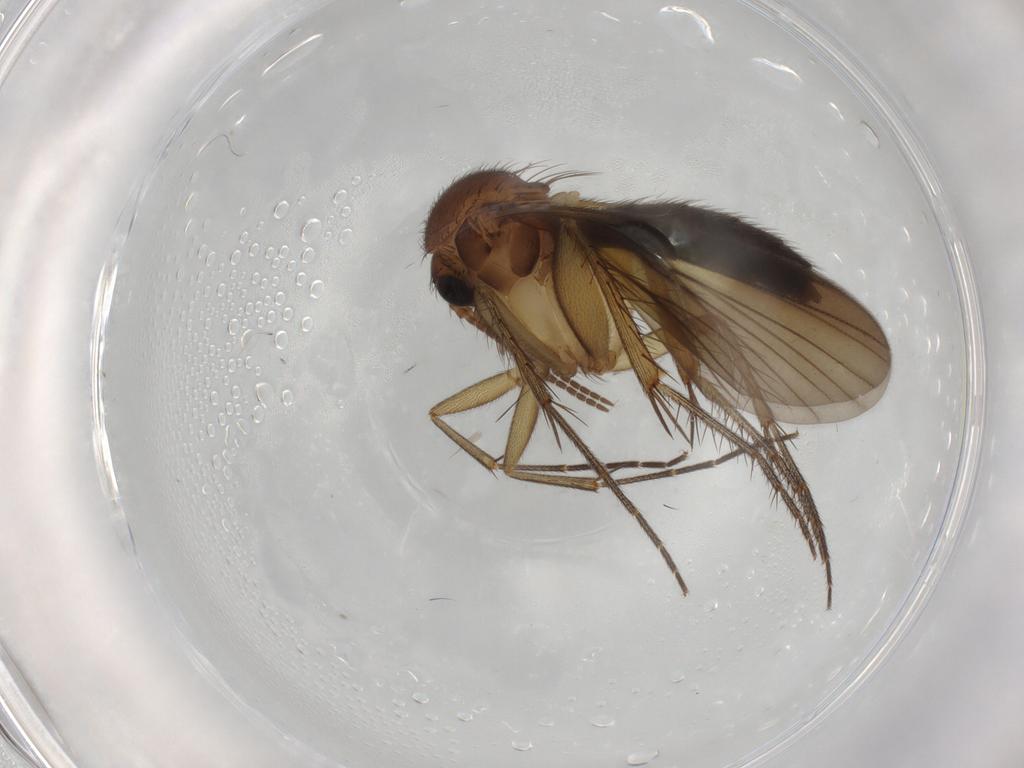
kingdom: Animalia
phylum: Arthropoda
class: Insecta
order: Diptera
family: Mycetophilidae
